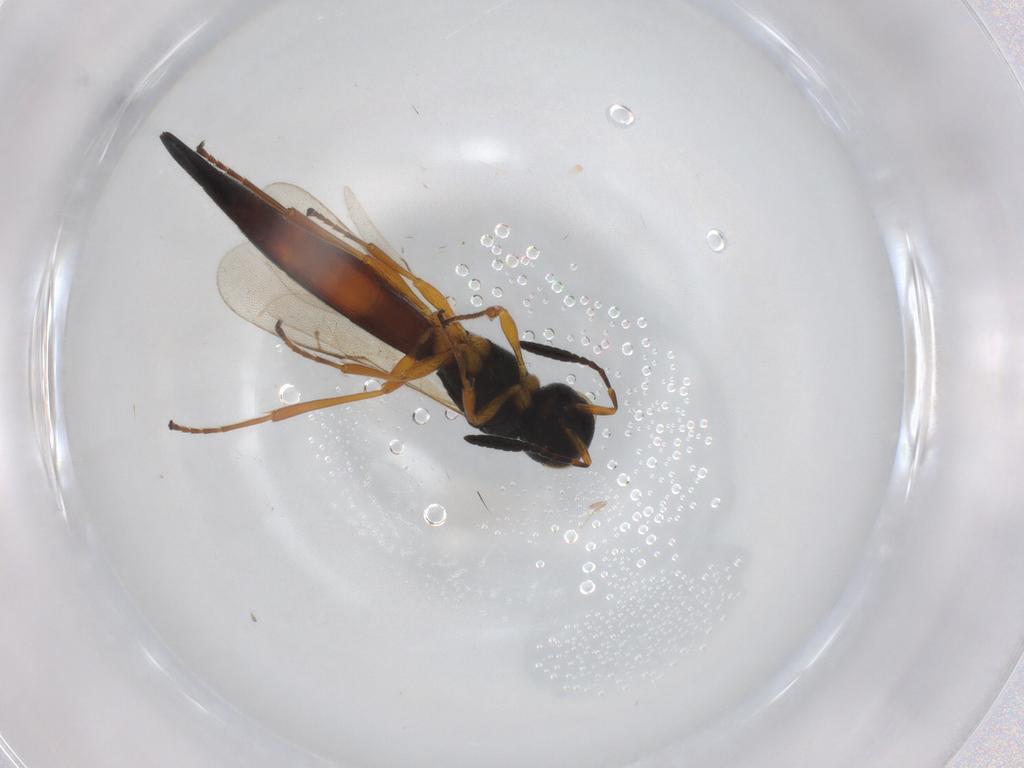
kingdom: Animalia
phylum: Arthropoda
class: Insecta
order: Hymenoptera
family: Scelionidae
